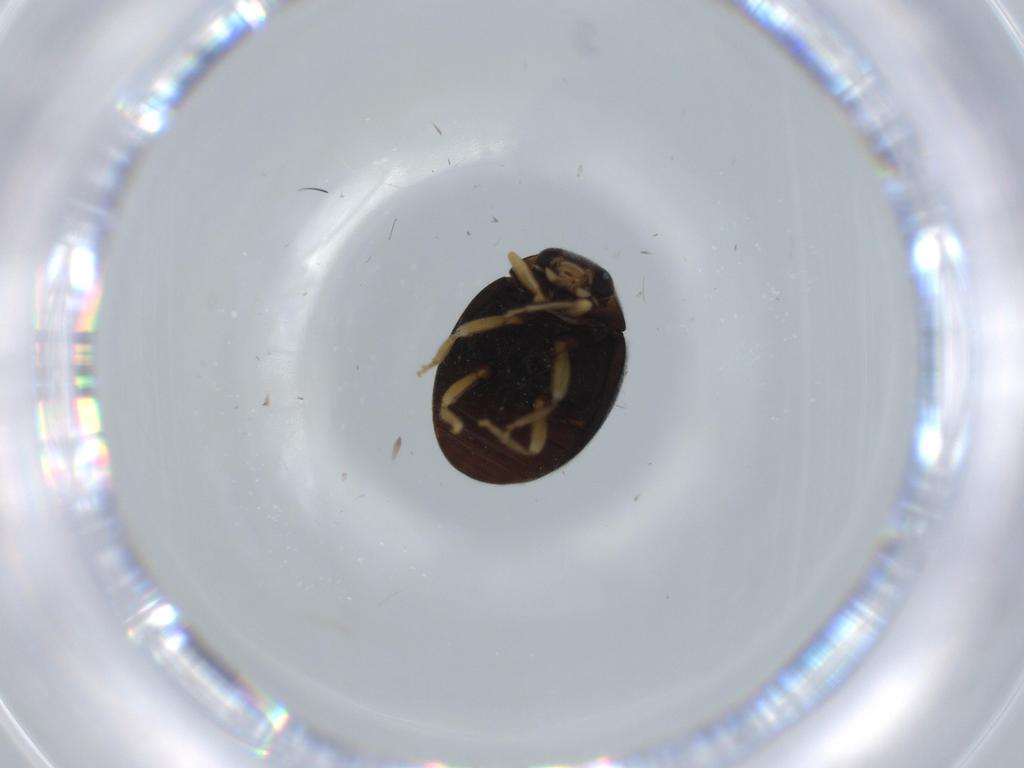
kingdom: Animalia
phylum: Arthropoda
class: Insecta
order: Coleoptera
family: Coccinellidae
